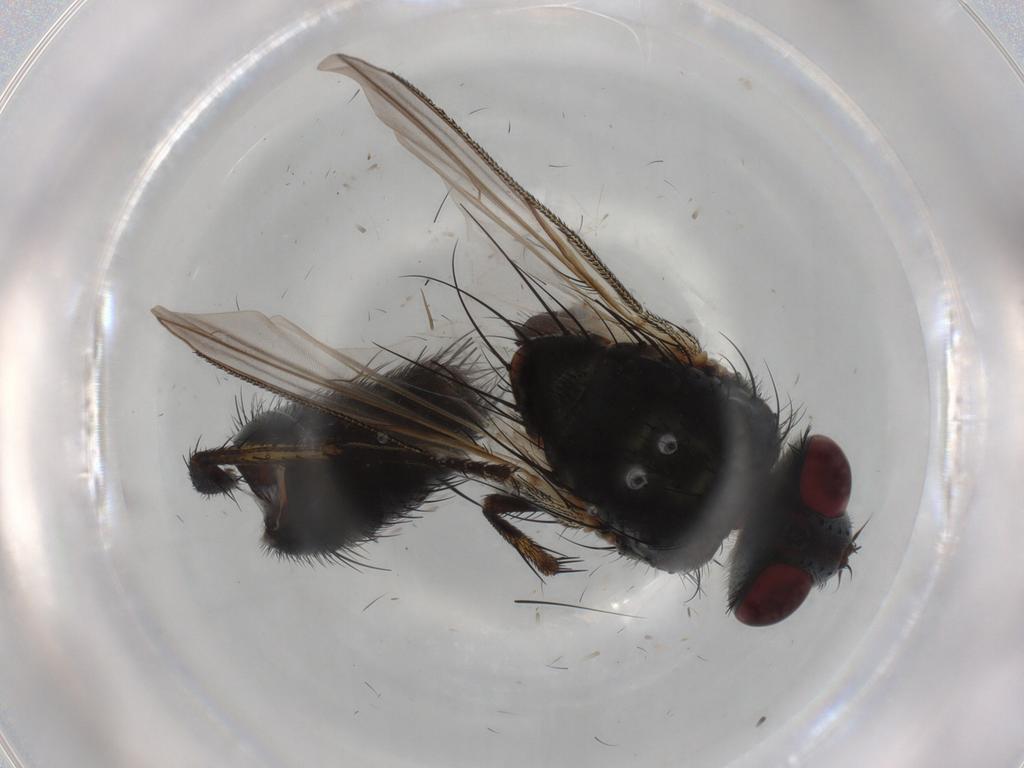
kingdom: Animalia
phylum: Arthropoda
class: Insecta
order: Diptera
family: Tachinidae
